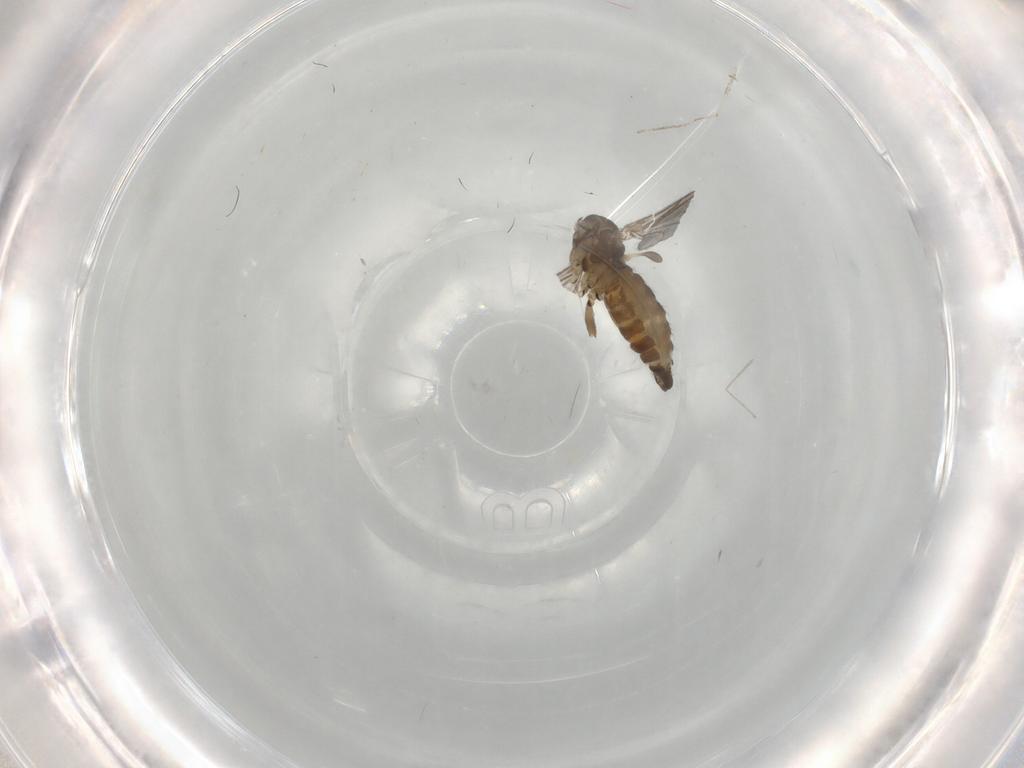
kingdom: Animalia
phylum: Arthropoda
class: Insecta
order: Diptera
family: Sciaridae
